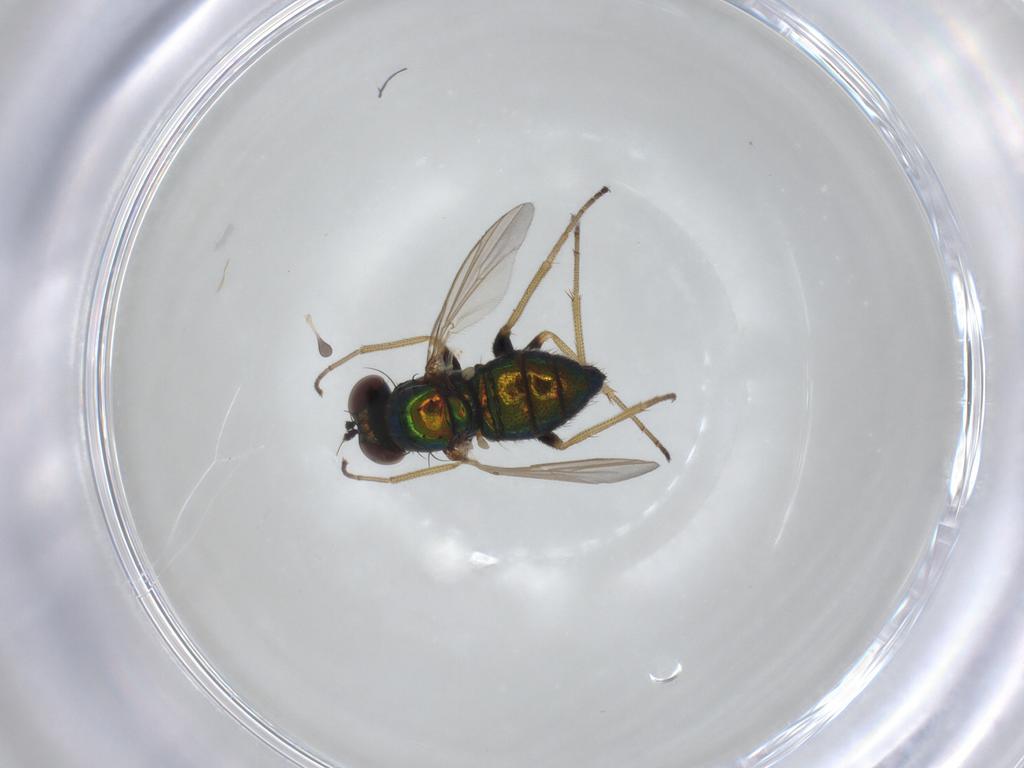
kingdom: Animalia
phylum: Arthropoda
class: Insecta
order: Diptera
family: Dolichopodidae
